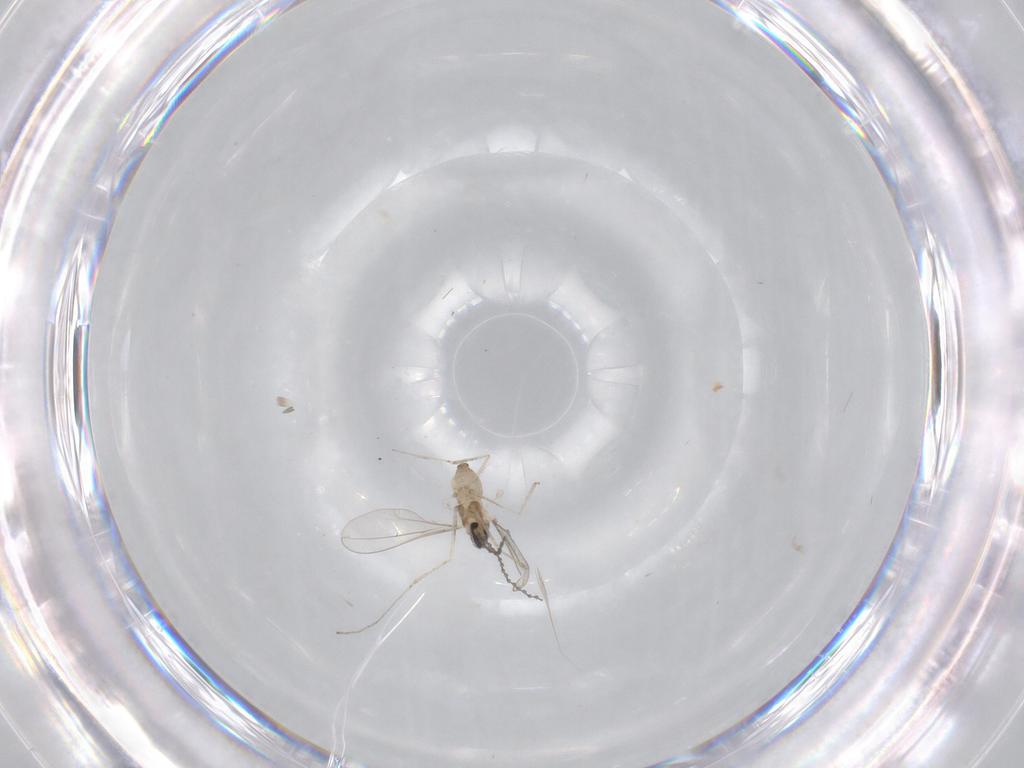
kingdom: Animalia
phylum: Arthropoda
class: Insecta
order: Diptera
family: Cecidomyiidae
